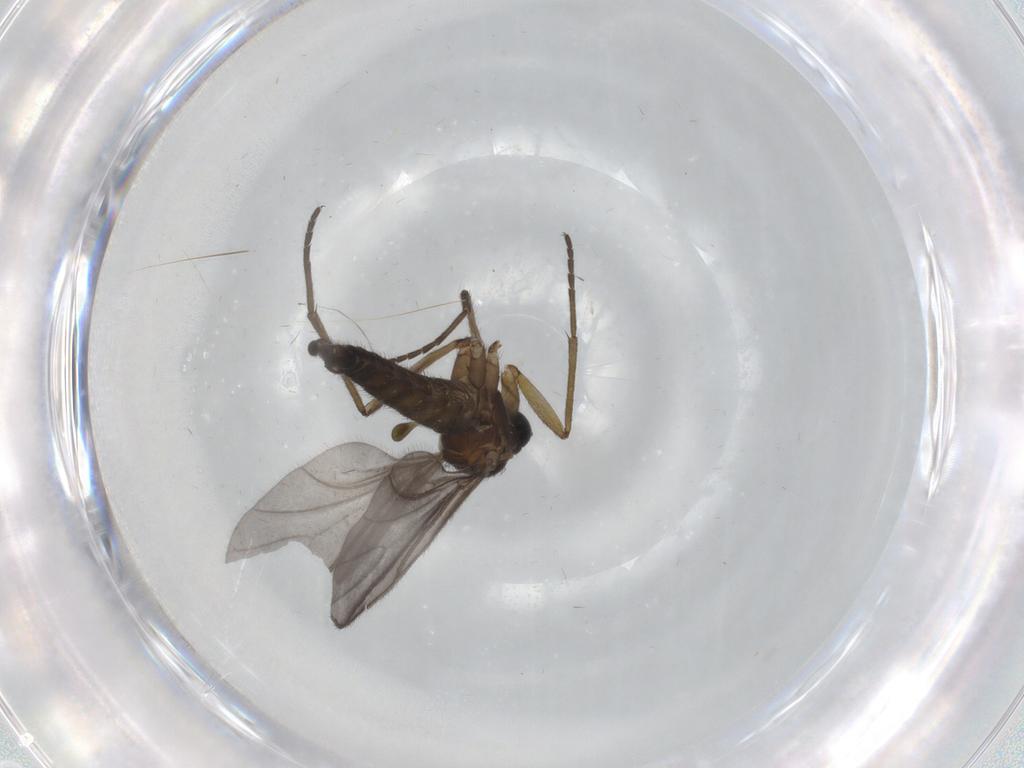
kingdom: Animalia
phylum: Arthropoda
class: Insecta
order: Diptera
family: Sciaridae
